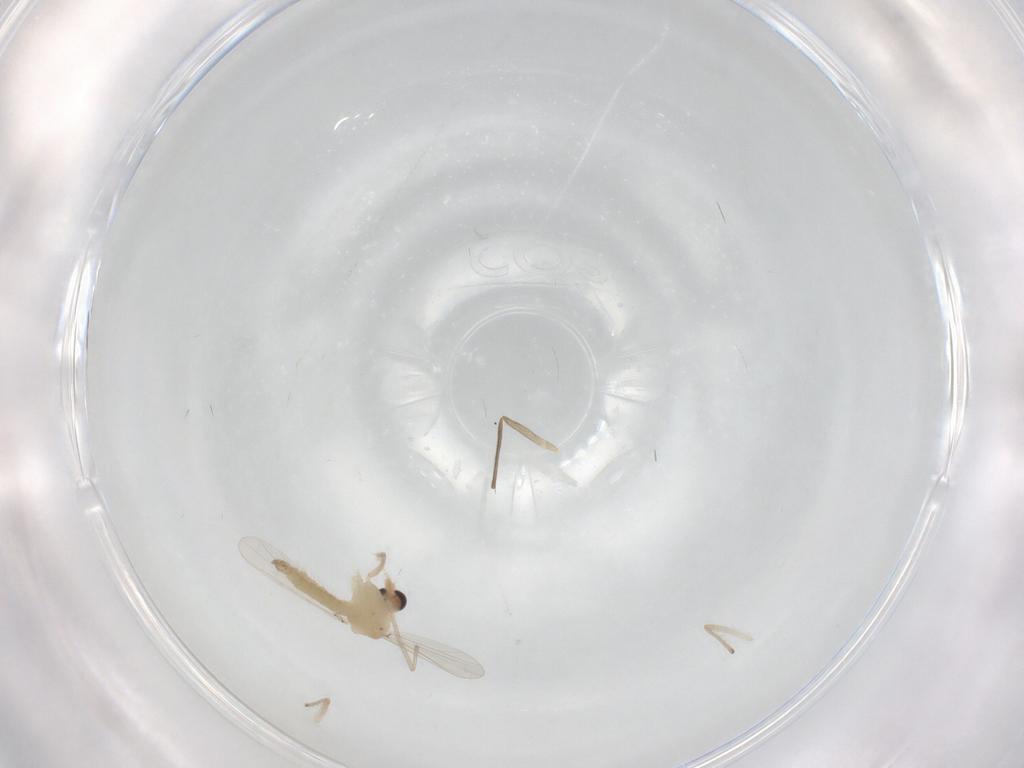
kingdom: Animalia
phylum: Arthropoda
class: Insecta
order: Diptera
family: Chironomidae
